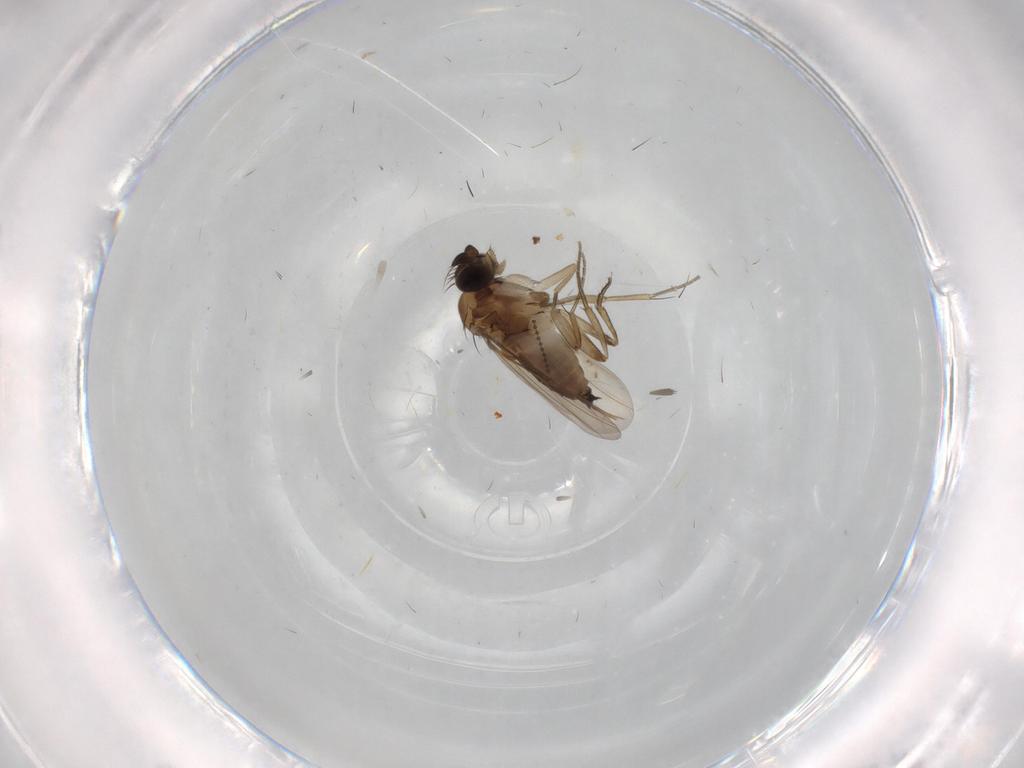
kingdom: Animalia
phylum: Arthropoda
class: Insecta
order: Diptera
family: Phoridae
